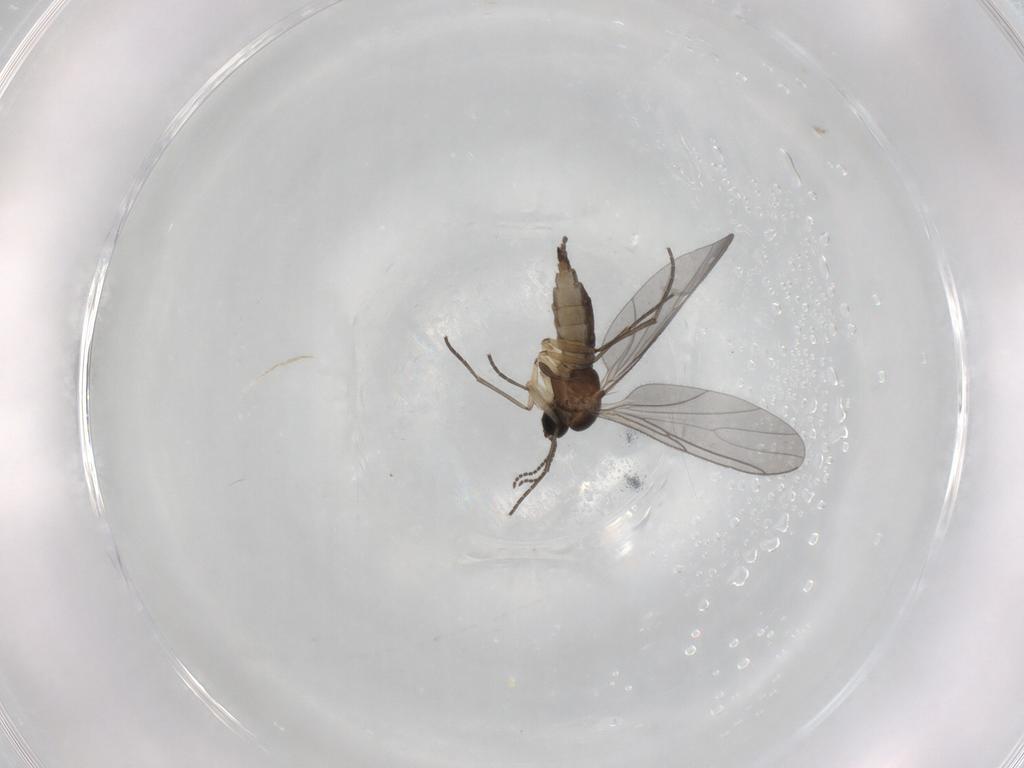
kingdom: Animalia
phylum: Arthropoda
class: Insecta
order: Diptera
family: Sciaridae
